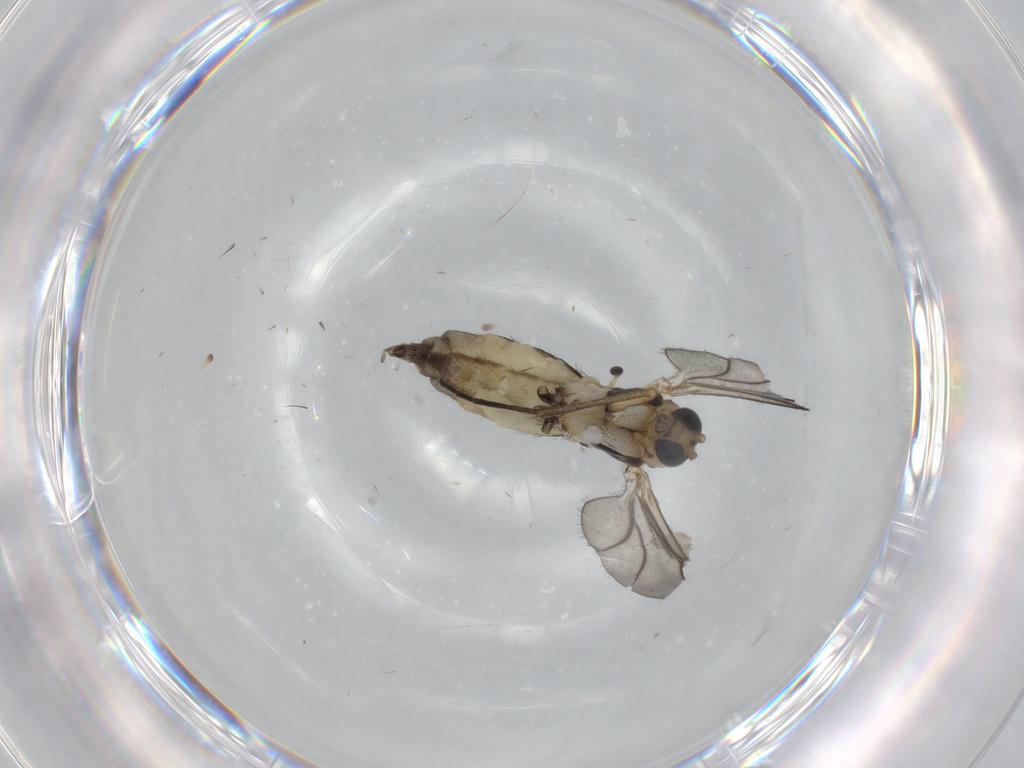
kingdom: Animalia
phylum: Arthropoda
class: Insecta
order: Diptera
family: Sciaridae
